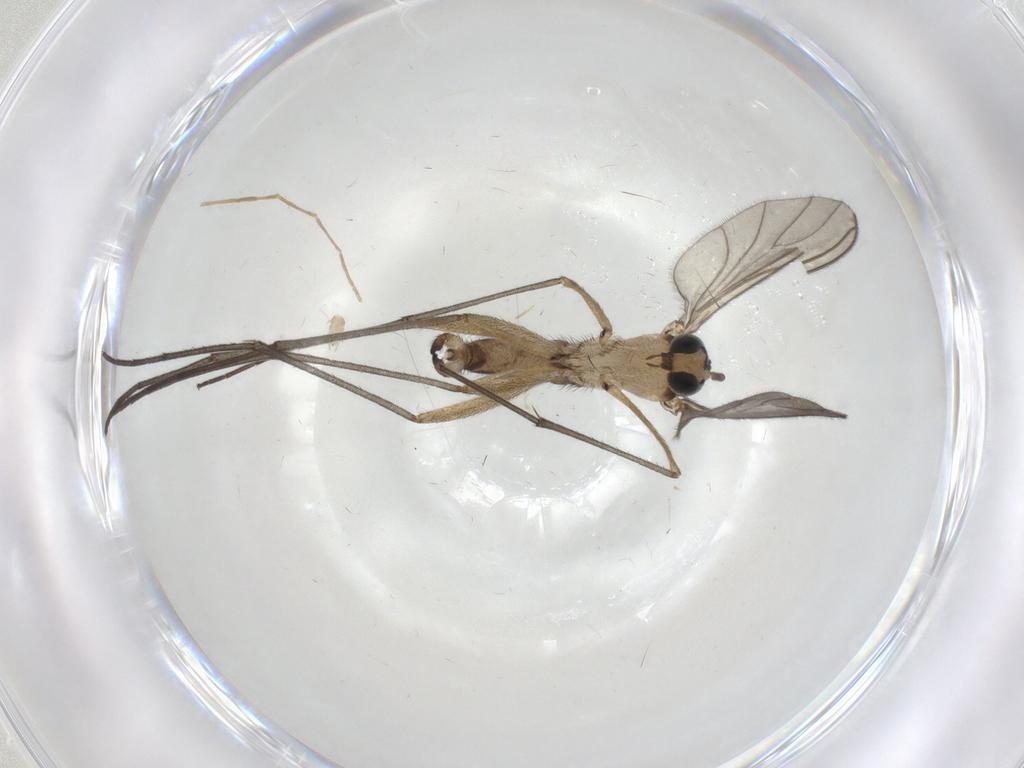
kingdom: Animalia
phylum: Arthropoda
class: Insecta
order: Diptera
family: Sciaridae
